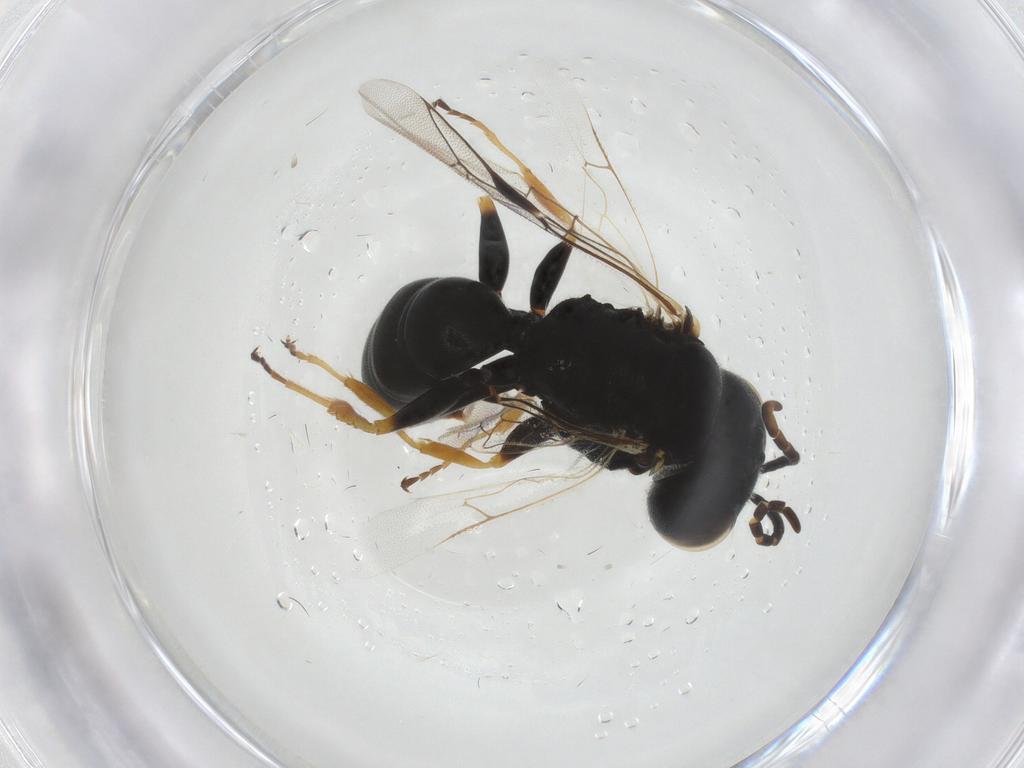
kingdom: Animalia
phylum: Arthropoda
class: Insecta
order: Hymenoptera
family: Pemphredonidae
